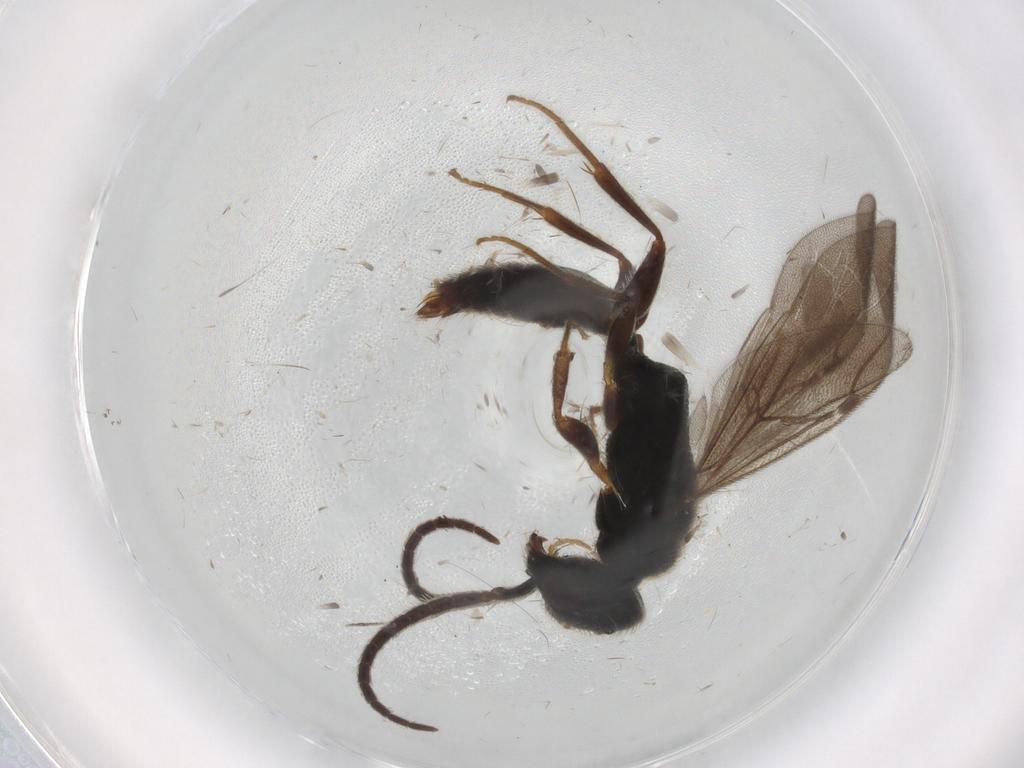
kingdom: Animalia
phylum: Arthropoda
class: Insecta
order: Hymenoptera
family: Bethylidae
